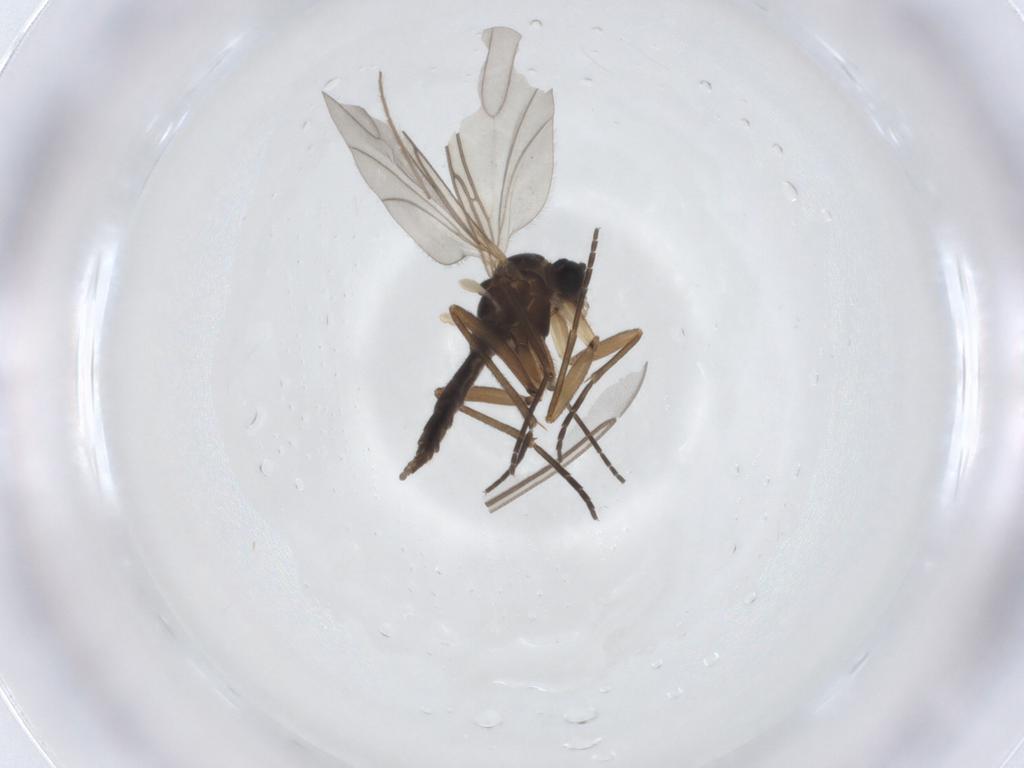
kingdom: Animalia
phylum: Arthropoda
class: Insecta
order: Diptera
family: Sciaridae
